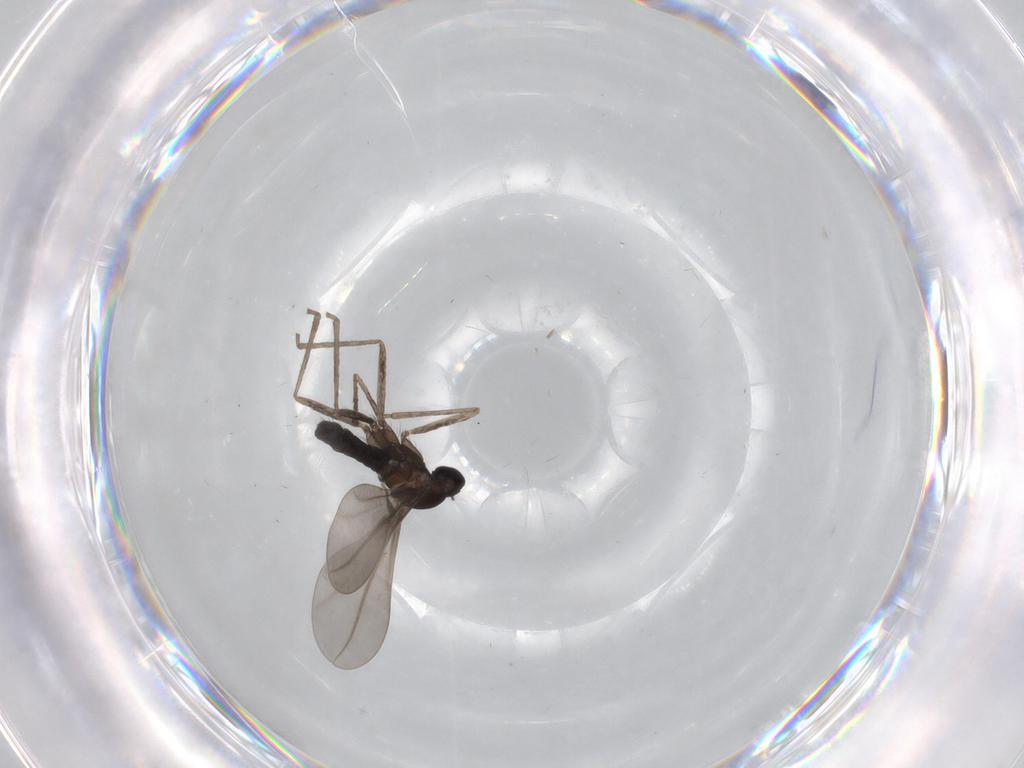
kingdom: Animalia
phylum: Arthropoda
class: Insecta
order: Diptera
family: Cecidomyiidae
